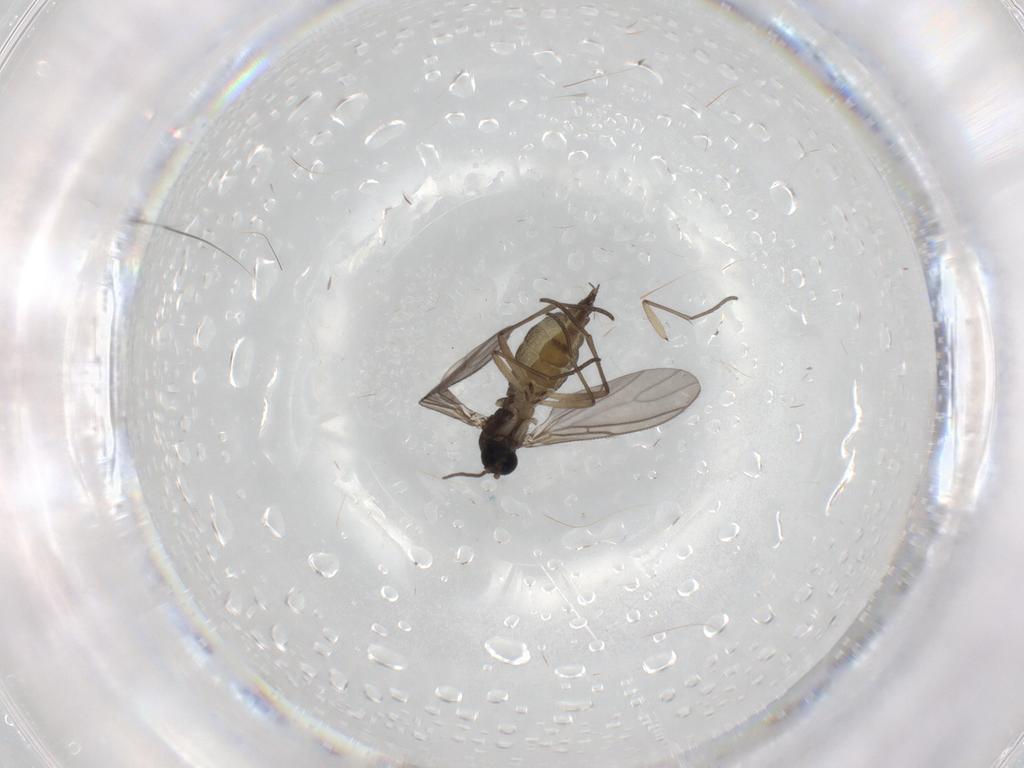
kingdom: Animalia
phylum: Arthropoda
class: Insecta
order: Diptera
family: Sciaridae
